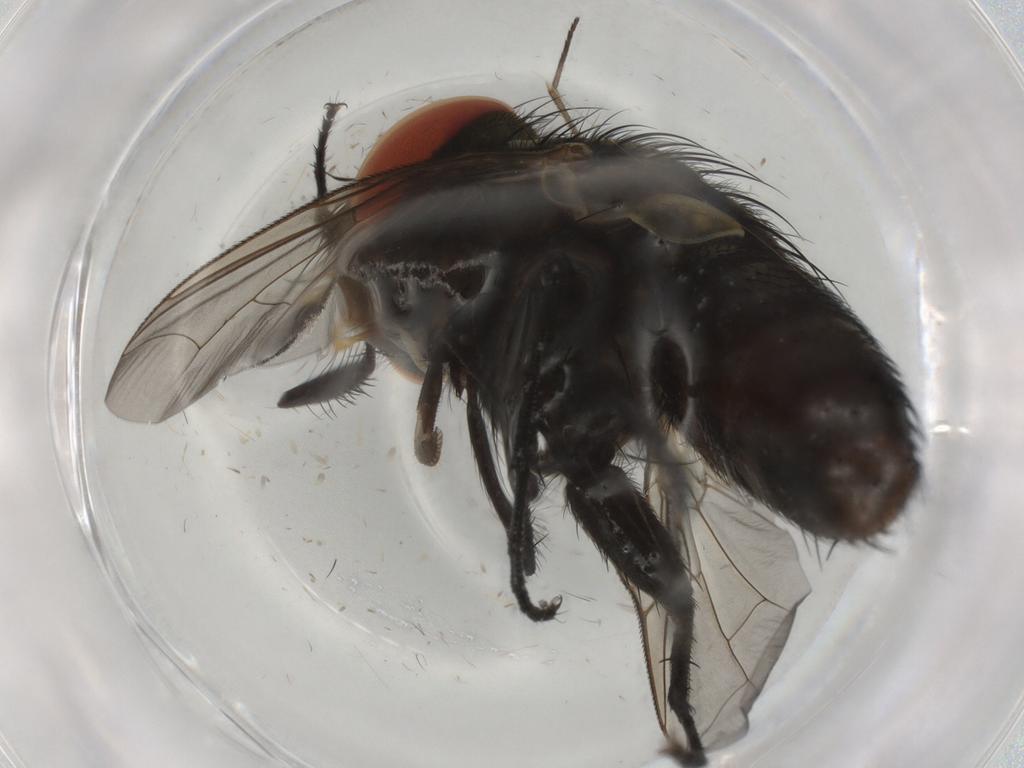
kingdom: Animalia
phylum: Arthropoda
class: Insecta
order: Diptera
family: Sarcophagidae
